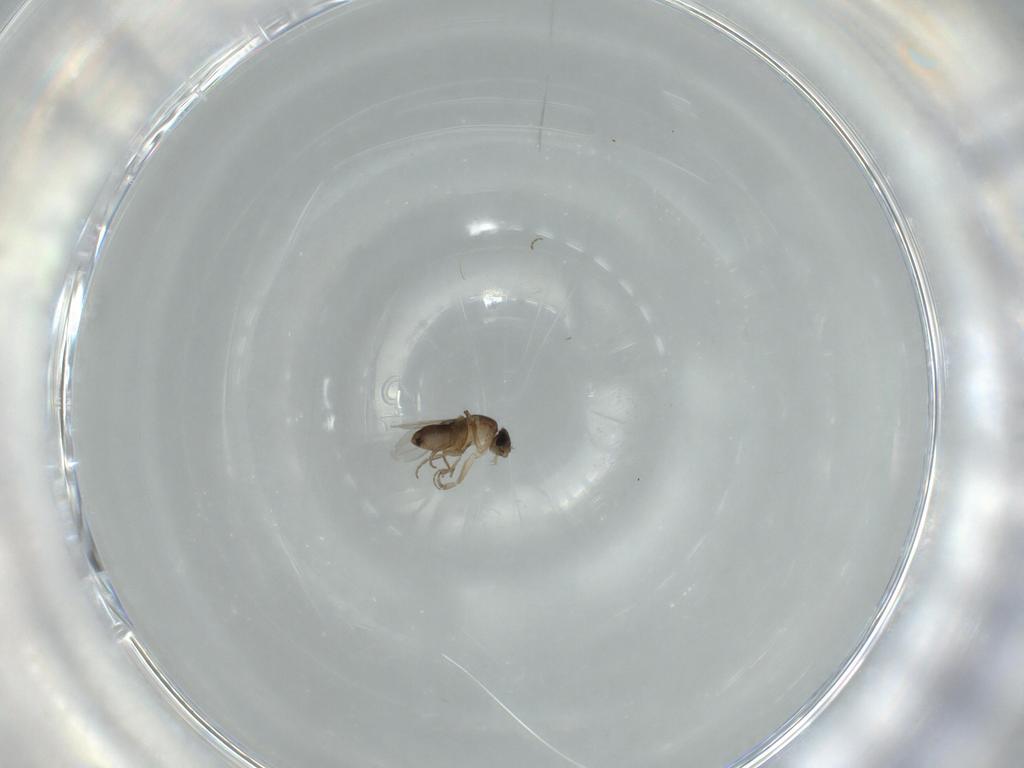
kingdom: Animalia
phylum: Arthropoda
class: Insecta
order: Diptera
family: Phoridae
